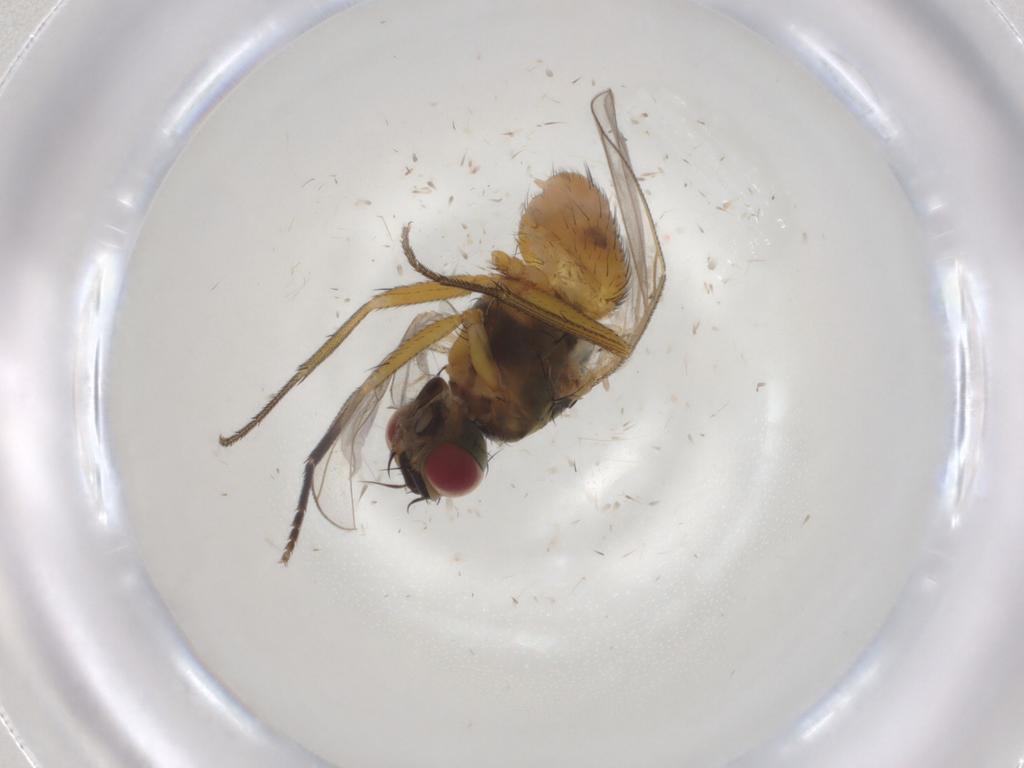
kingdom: Animalia
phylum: Arthropoda
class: Insecta
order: Diptera
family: Muscidae
